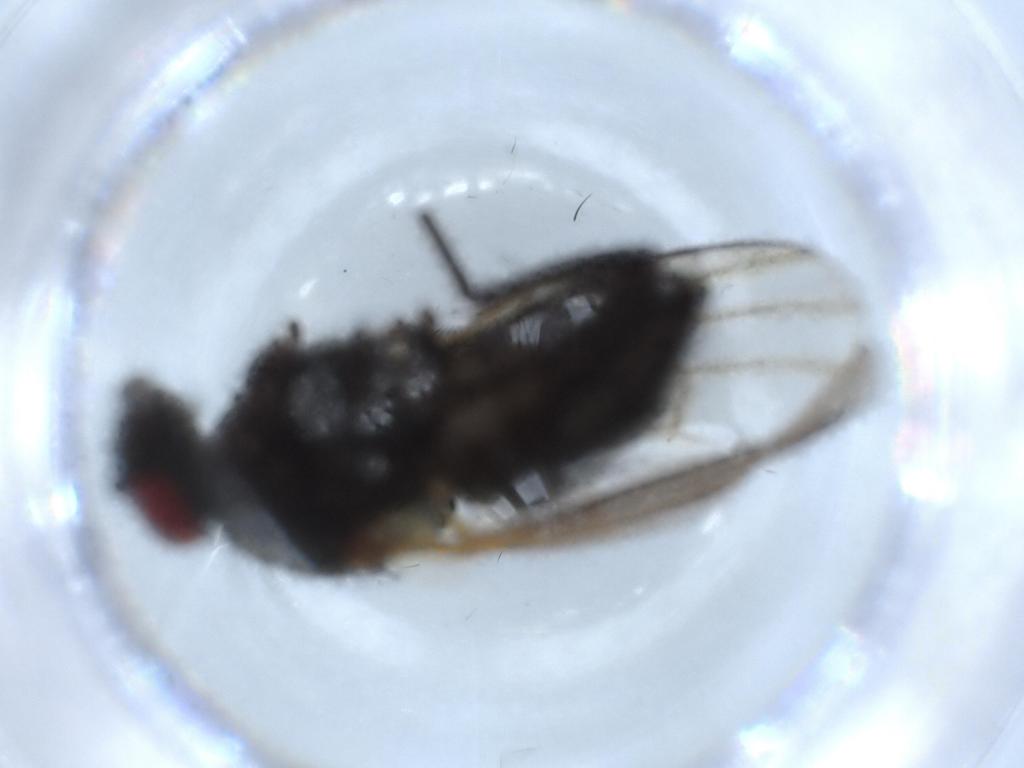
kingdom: Animalia
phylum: Arthropoda
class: Insecta
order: Diptera
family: Muscidae
